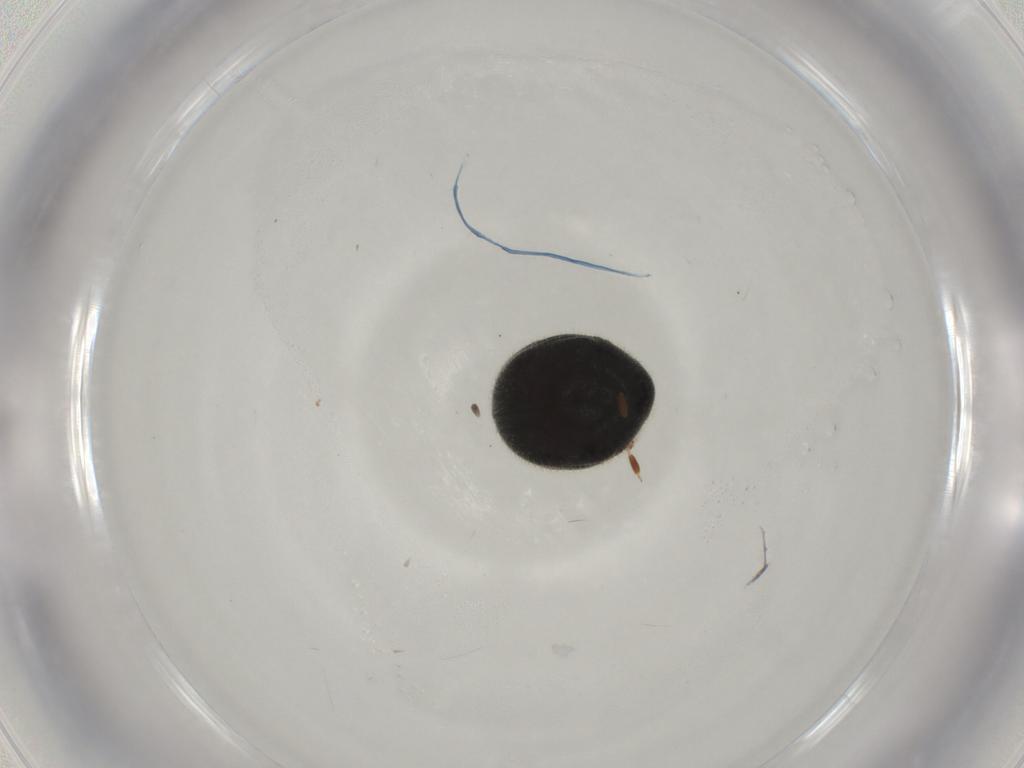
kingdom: Animalia
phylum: Arthropoda
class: Insecta
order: Coleoptera
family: Ptinidae
